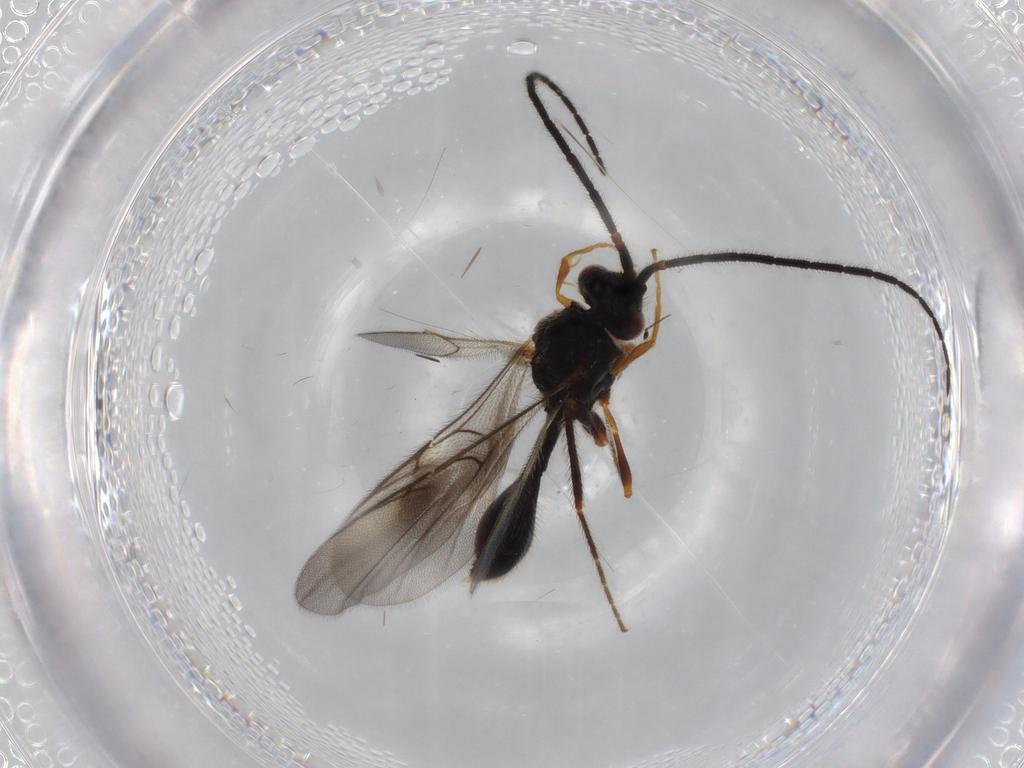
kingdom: Animalia
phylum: Arthropoda
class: Insecta
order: Hymenoptera
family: Diapriidae
